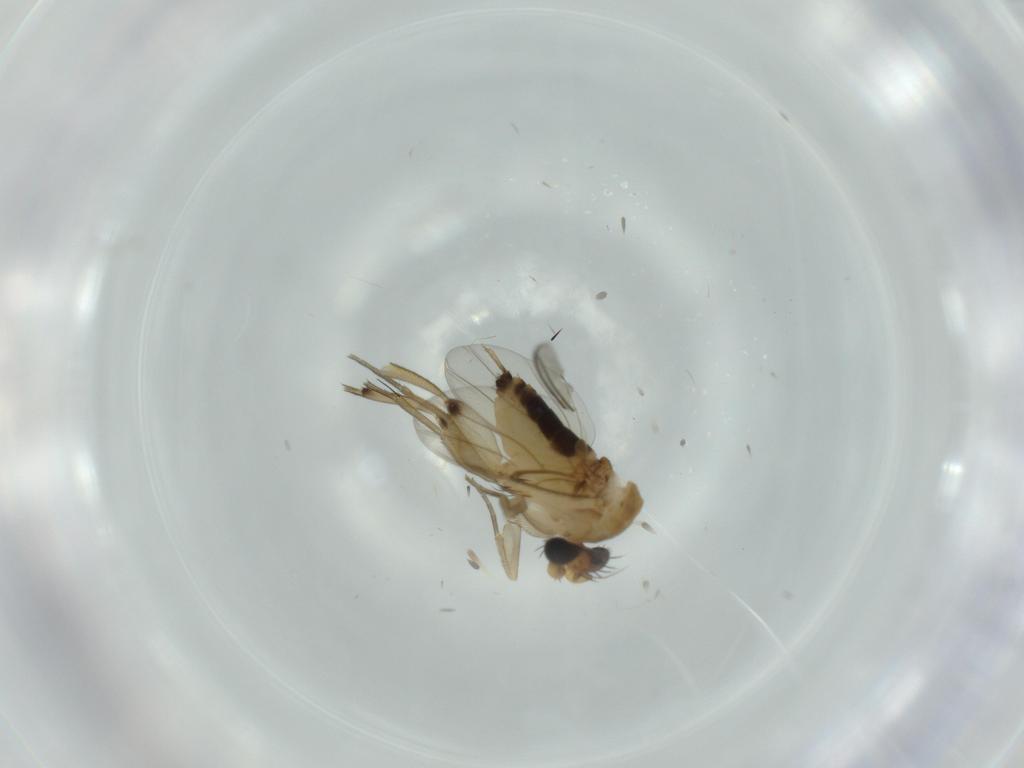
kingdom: Animalia
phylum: Arthropoda
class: Insecta
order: Diptera
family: Sciaridae
